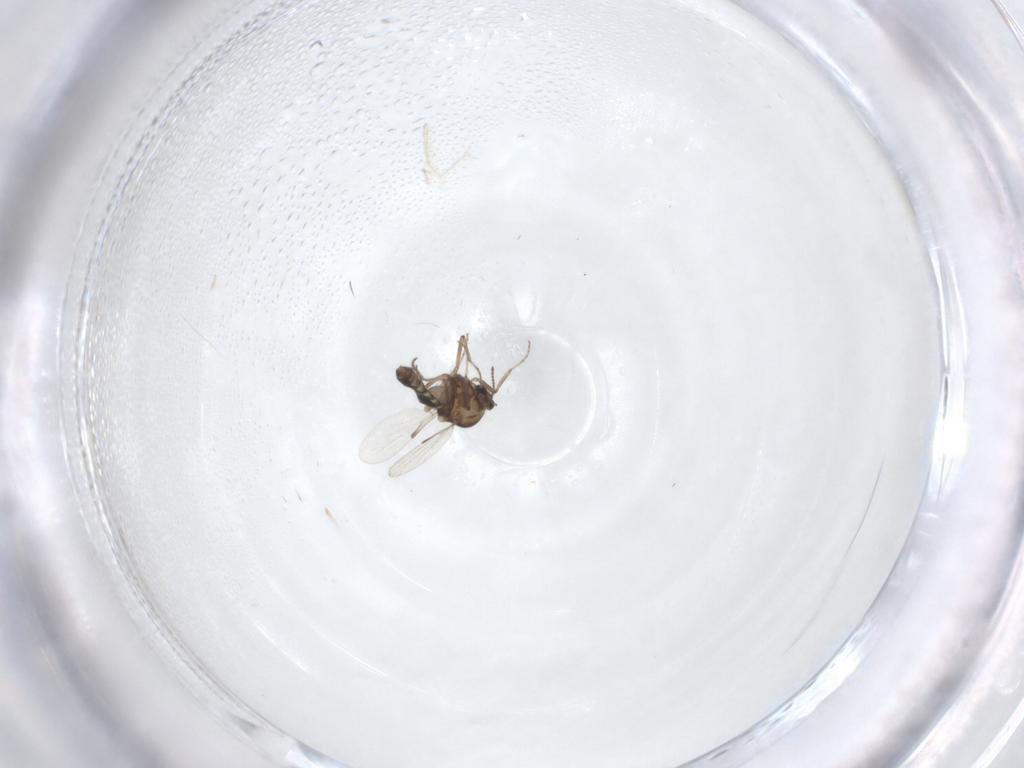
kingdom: Animalia
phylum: Arthropoda
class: Insecta
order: Diptera
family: Ceratopogonidae
